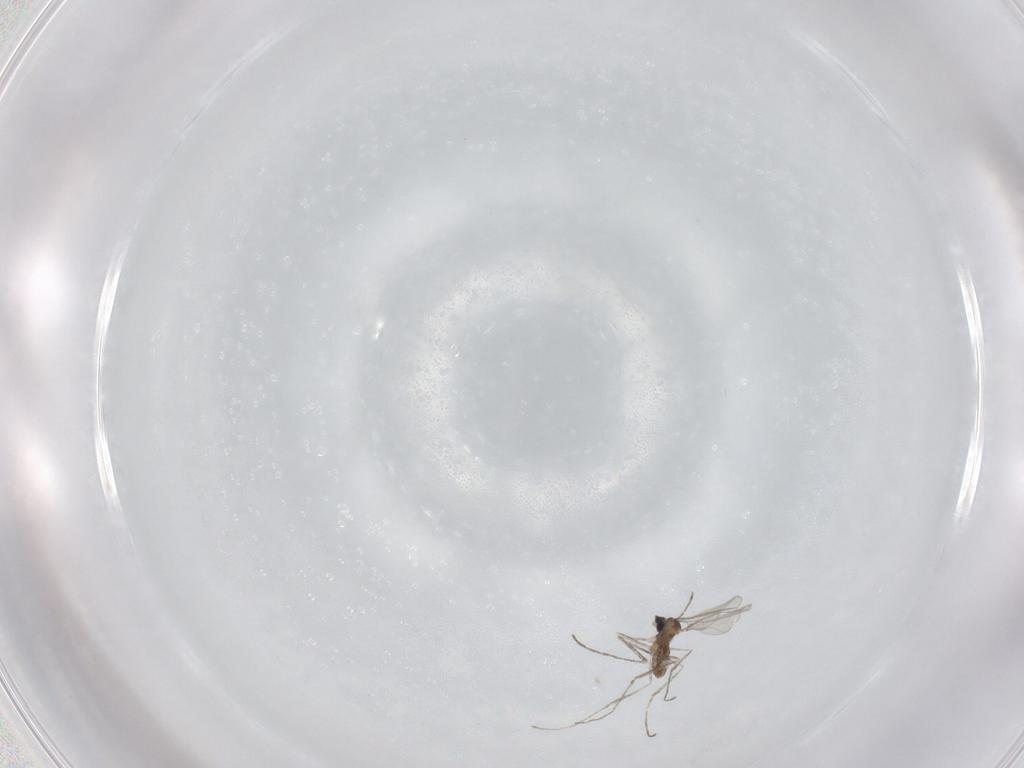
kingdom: Animalia
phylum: Arthropoda
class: Insecta
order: Diptera
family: Cecidomyiidae
